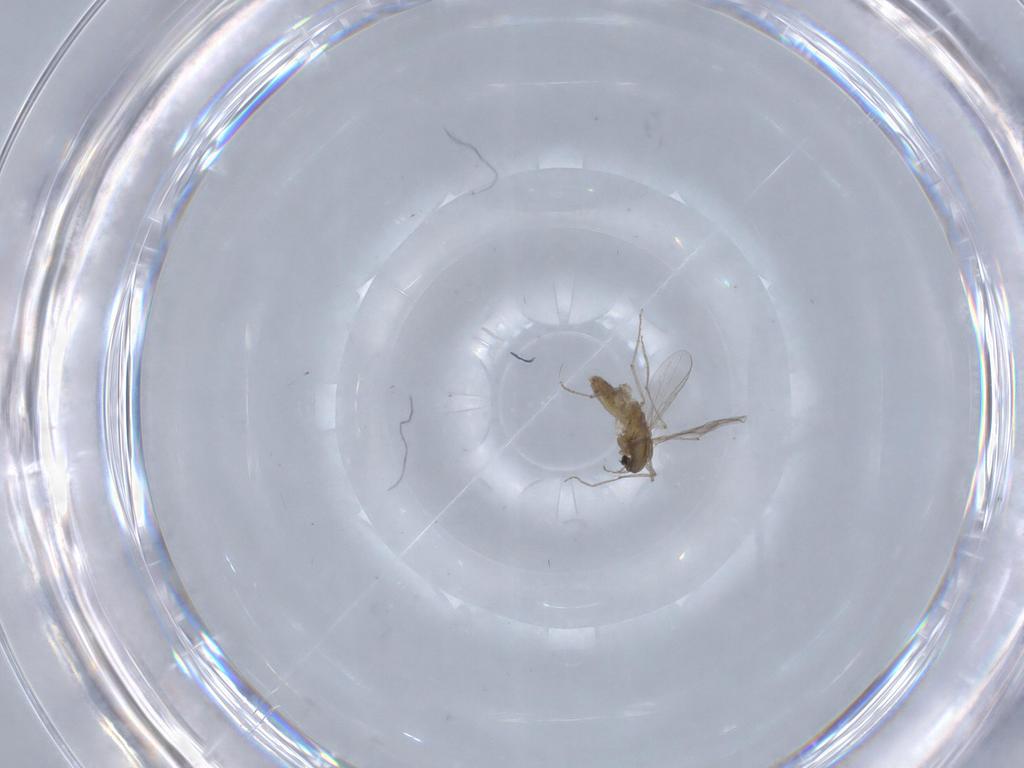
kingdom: Animalia
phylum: Arthropoda
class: Insecta
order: Diptera
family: Chironomidae
